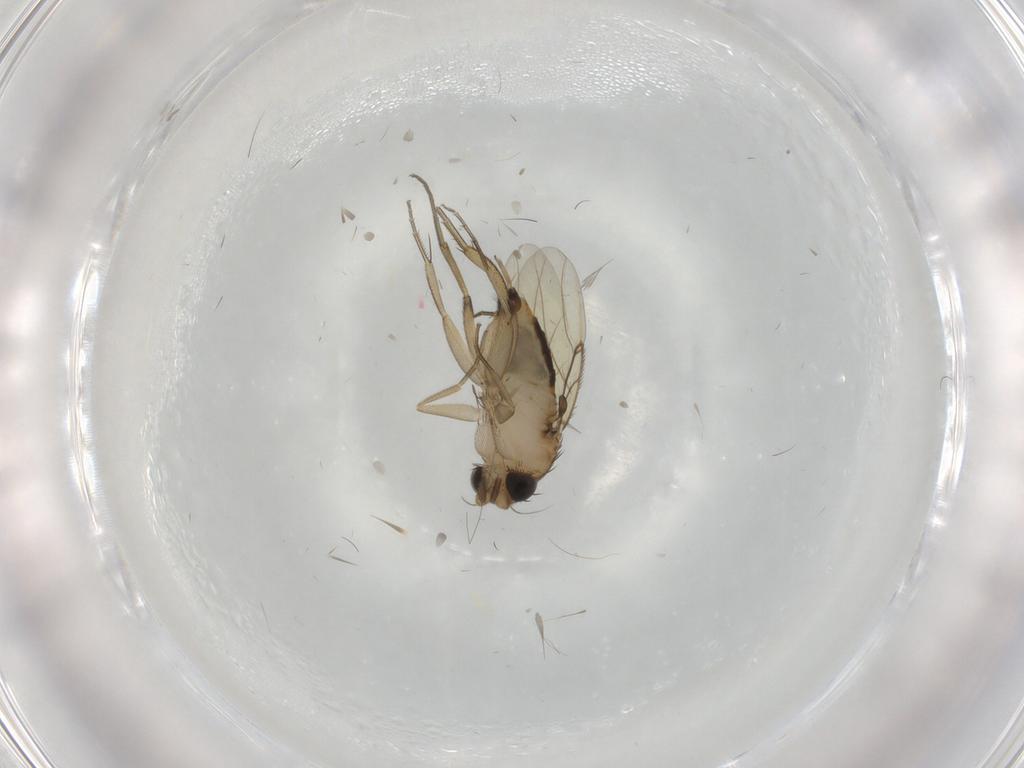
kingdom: Animalia
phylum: Arthropoda
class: Insecta
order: Diptera
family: Phoridae
